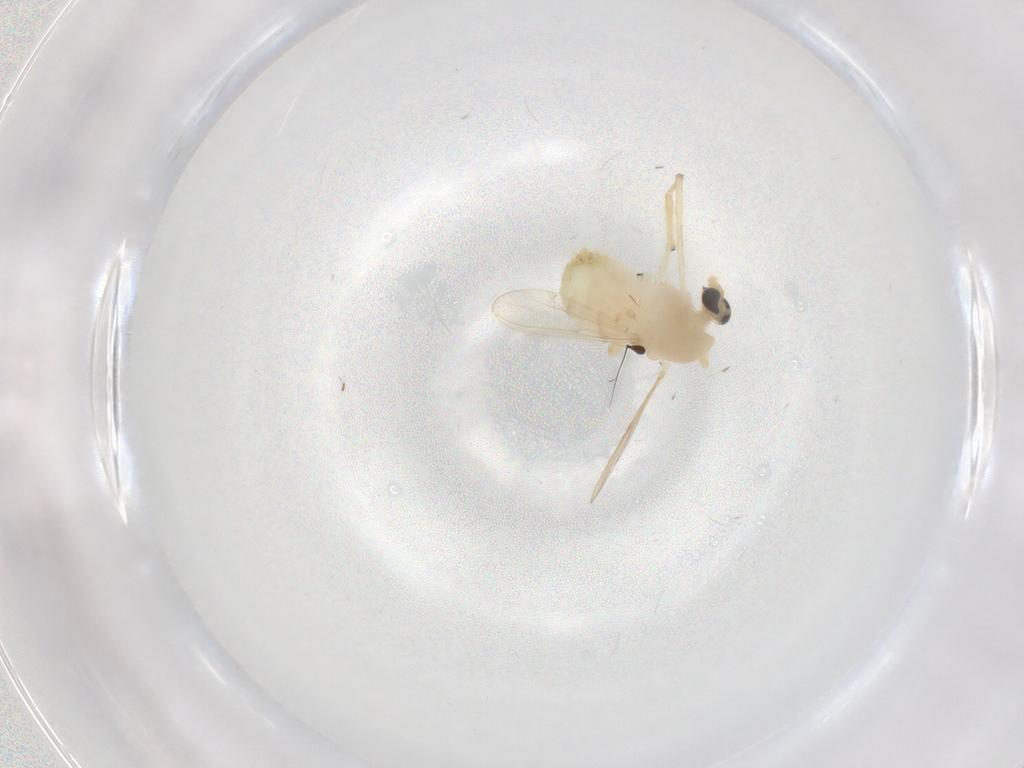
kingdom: Animalia
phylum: Arthropoda
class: Insecta
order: Diptera
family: Chironomidae
